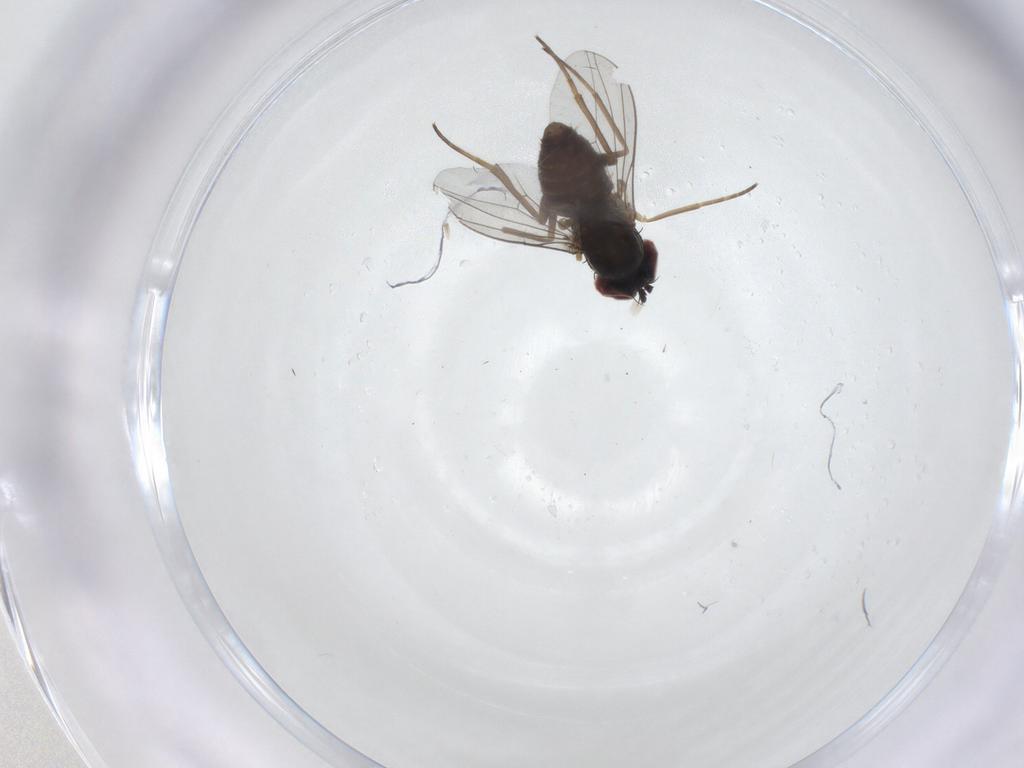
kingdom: Animalia
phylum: Arthropoda
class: Insecta
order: Diptera
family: Dolichopodidae
